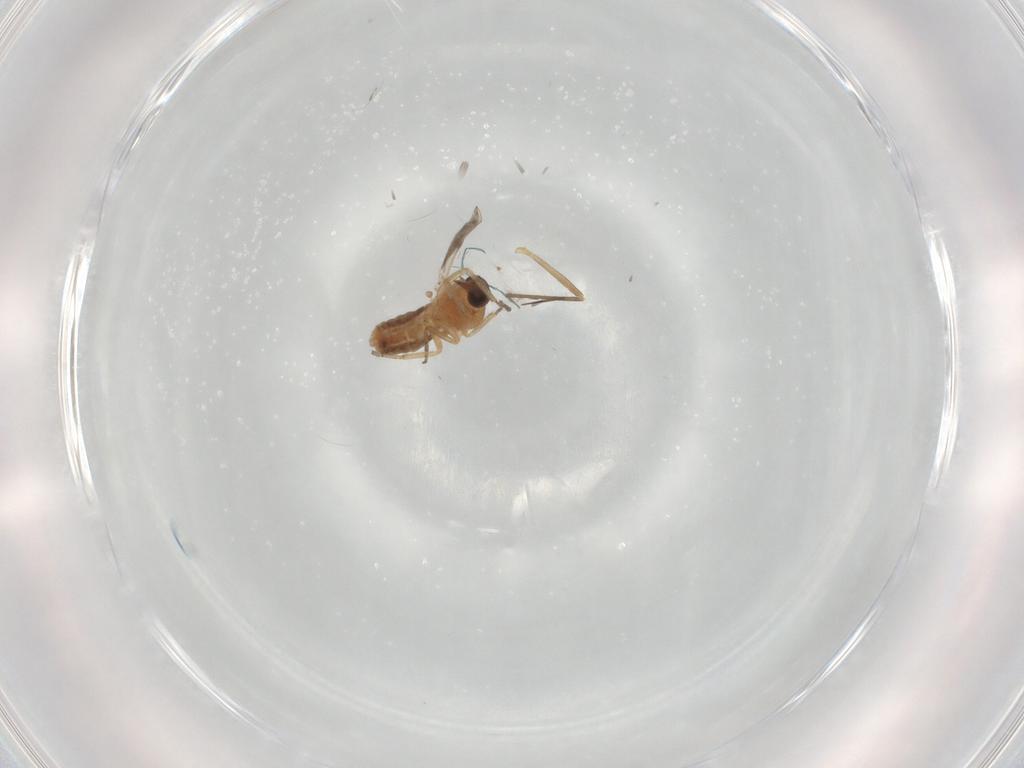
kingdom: Animalia
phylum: Arthropoda
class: Insecta
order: Diptera
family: Ceratopogonidae
